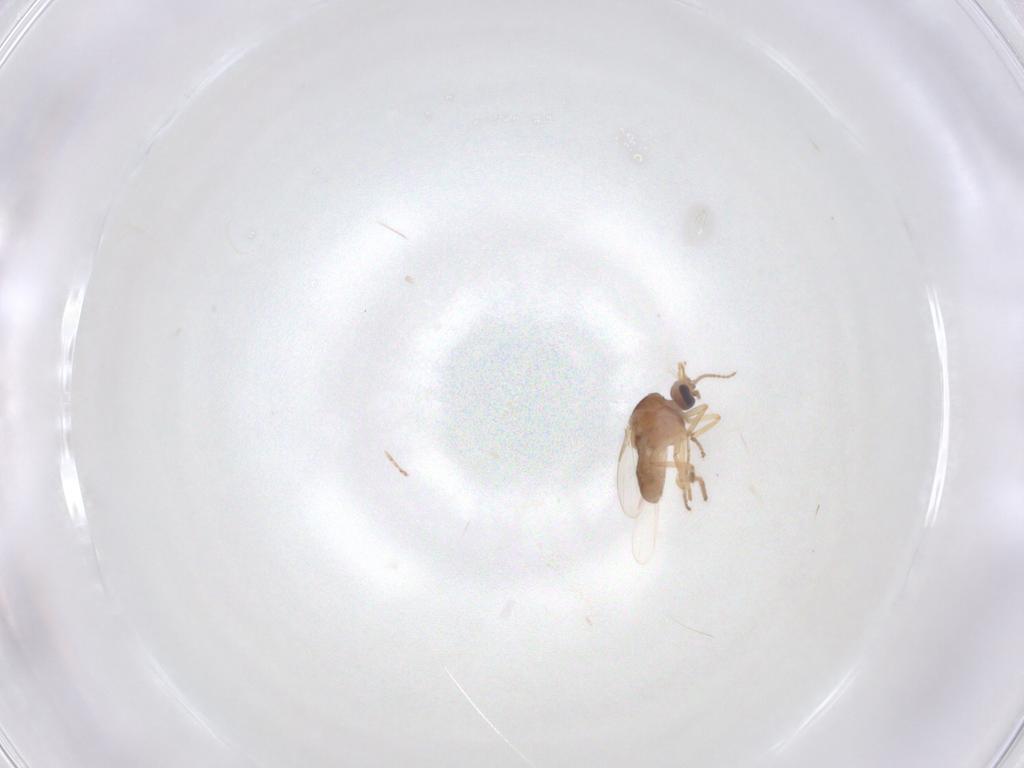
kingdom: Animalia
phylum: Arthropoda
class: Insecta
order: Diptera
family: Sciaridae
